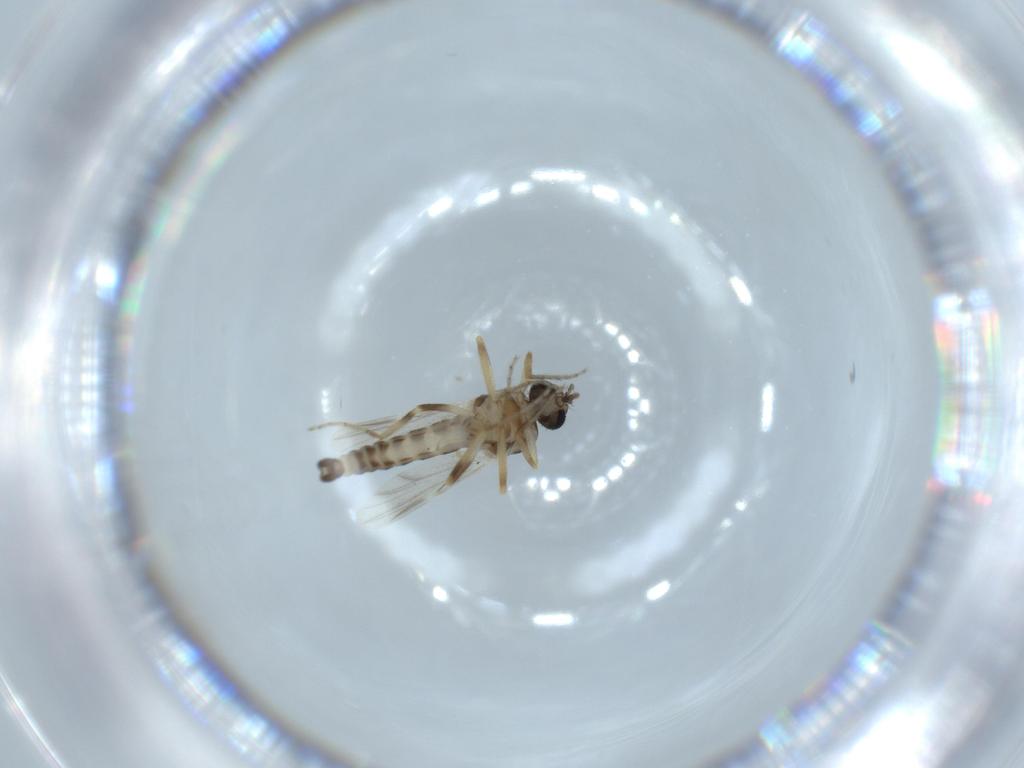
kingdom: Animalia
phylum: Arthropoda
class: Insecta
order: Diptera
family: Ceratopogonidae
